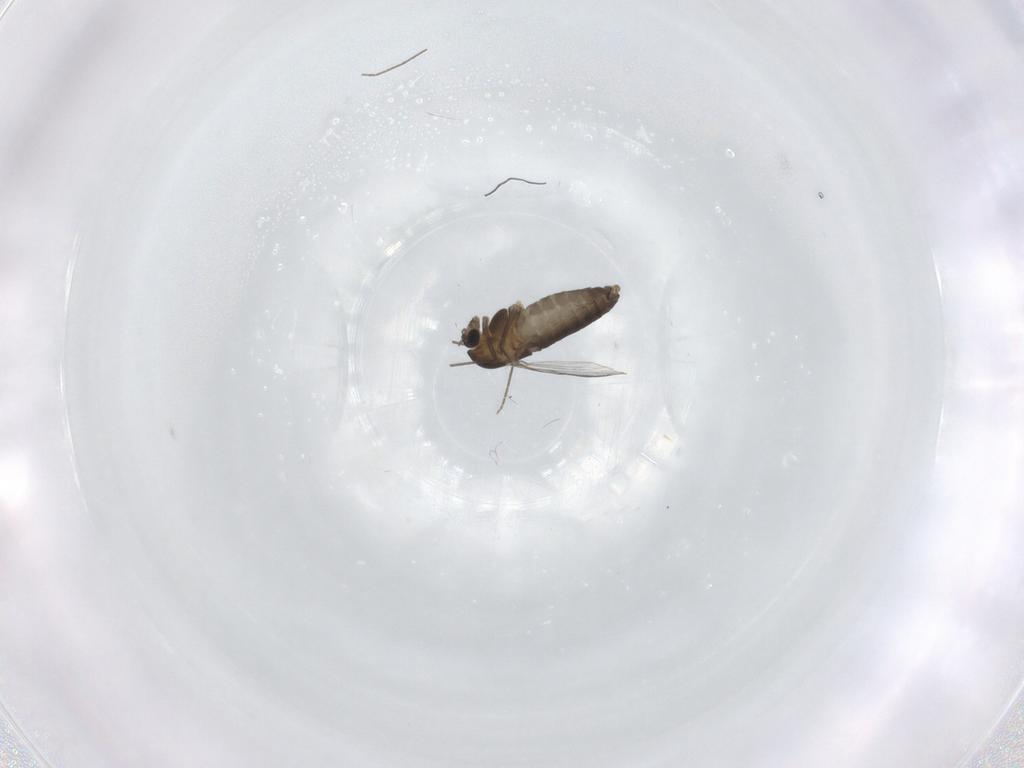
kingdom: Animalia
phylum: Arthropoda
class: Insecta
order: Diptera
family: Chironomidae
